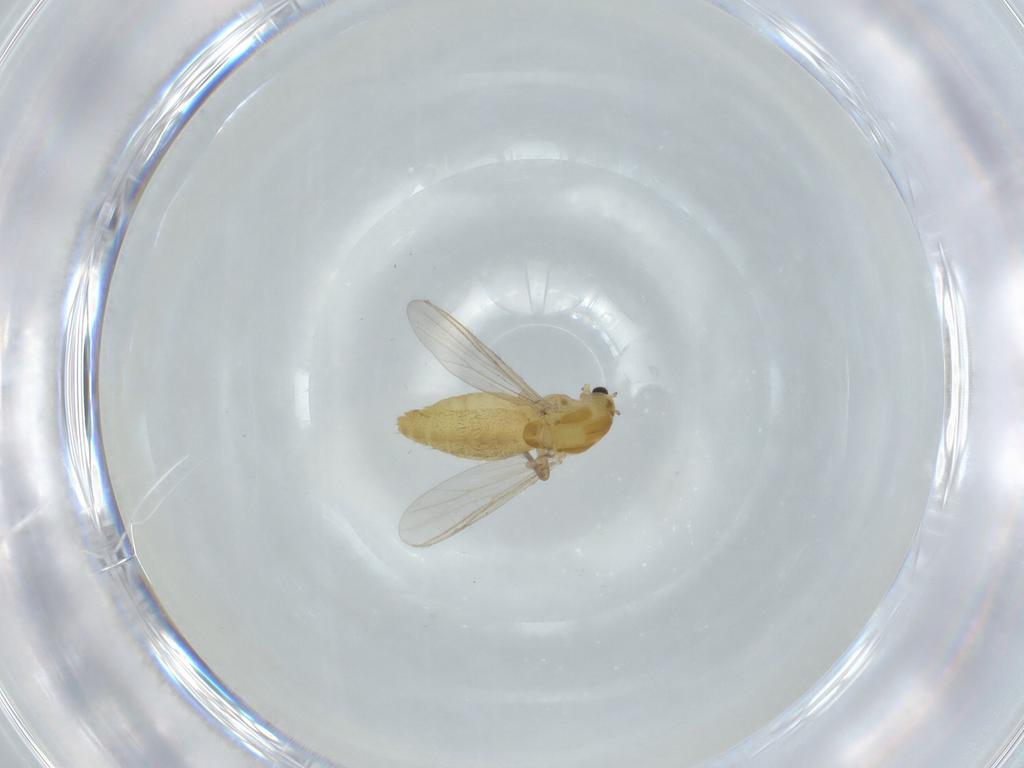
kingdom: Animalia
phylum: Arthropoda
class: Insecta
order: Diptera
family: Chironomidae
